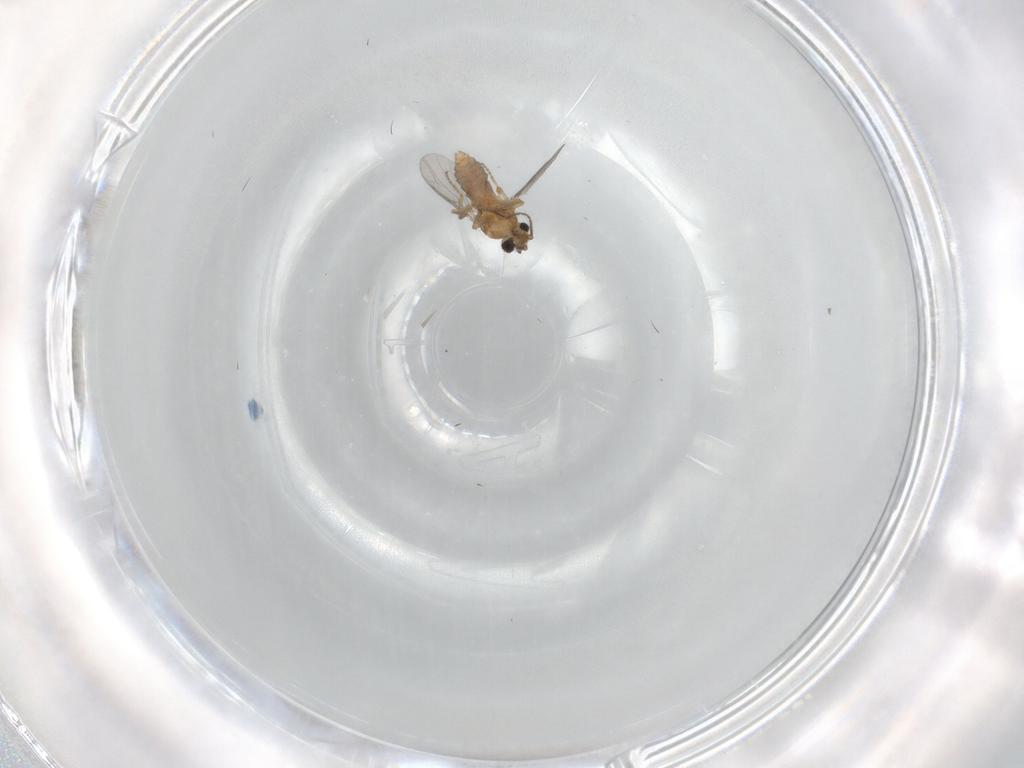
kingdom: Animalia
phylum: Arthropoda
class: Insecta
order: Diptera
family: Ceratopogonidae
